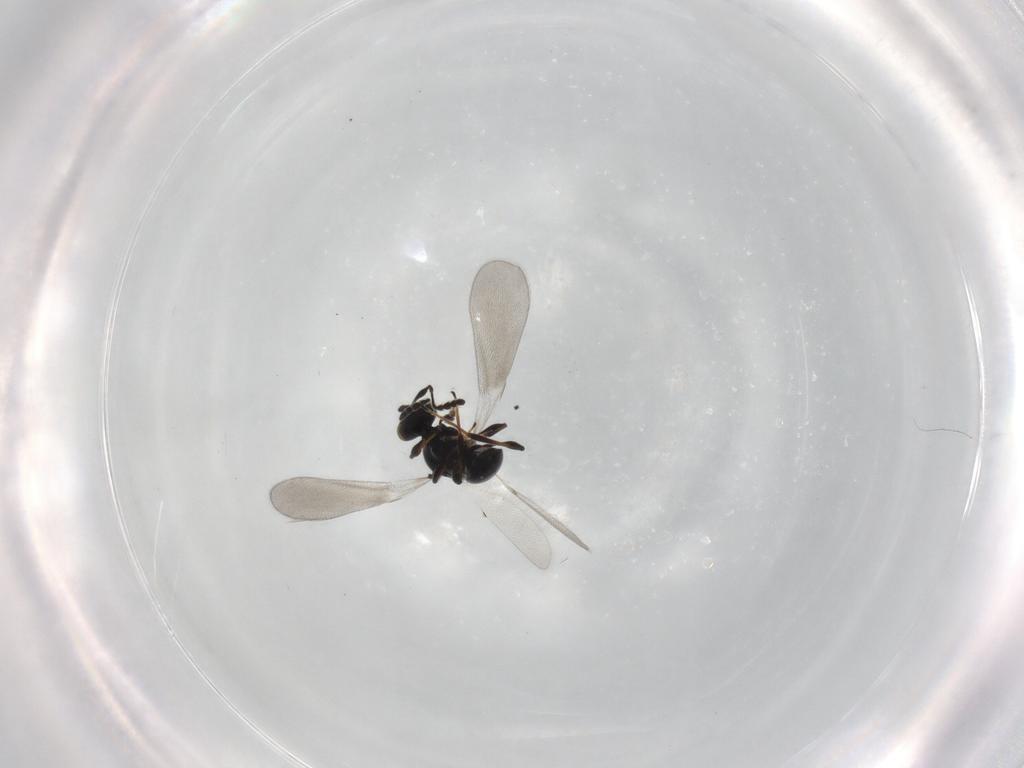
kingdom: Animalia
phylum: Arthropoda
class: Insecta
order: Hymenoptera
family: Platygastridae
